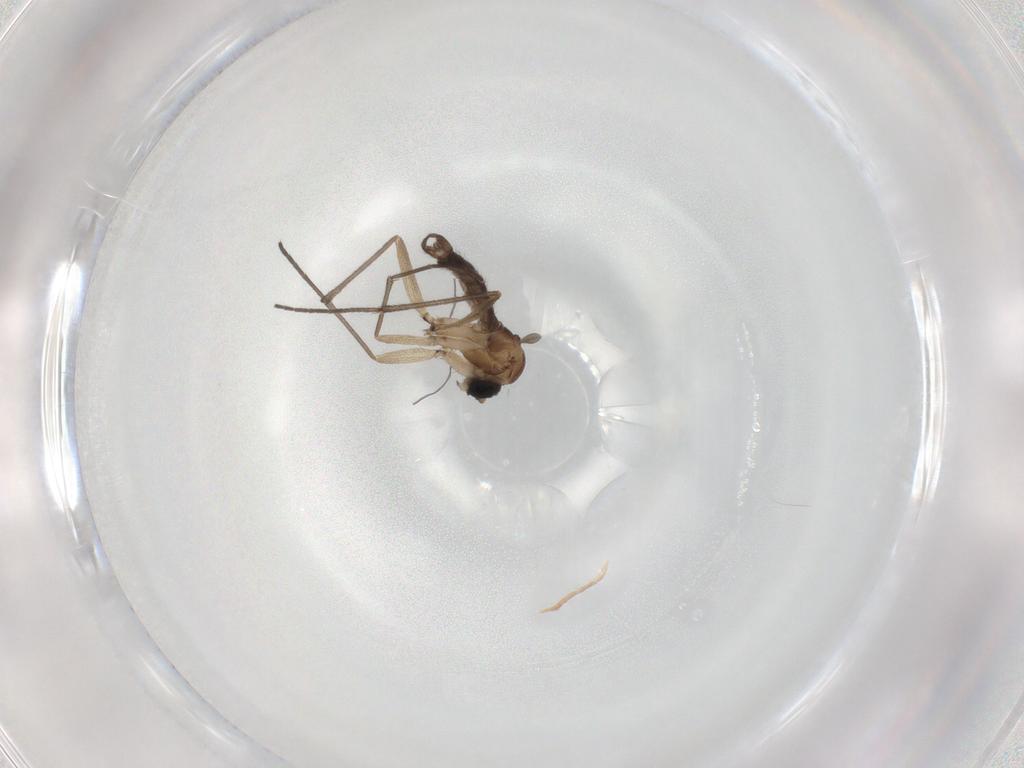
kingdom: Animalia
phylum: Arthropoda
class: Insecta
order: Diptera
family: Sciaridae
